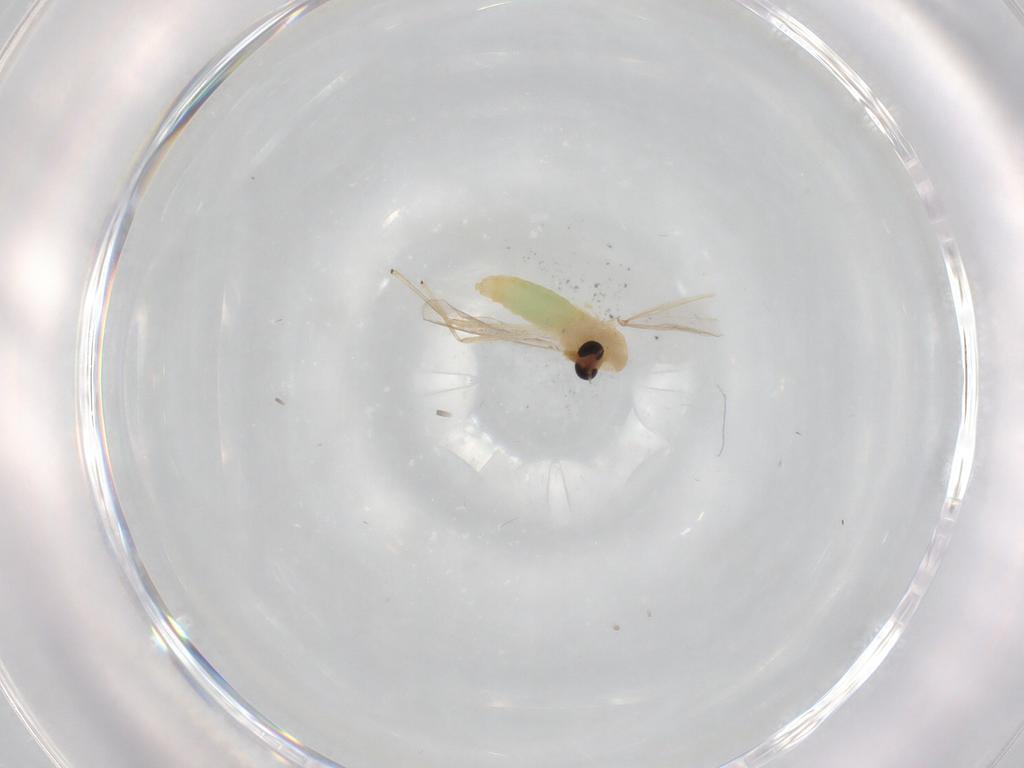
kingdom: Animalia
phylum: Arthropoda
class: Insecta
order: Diptera
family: Chironomidae
